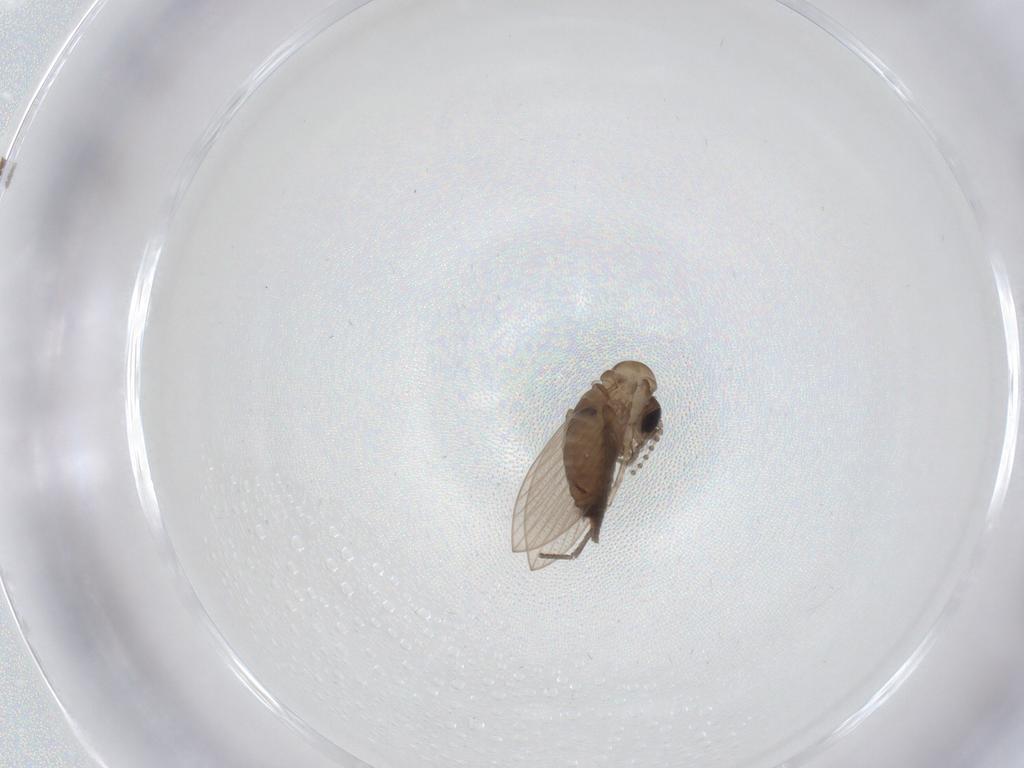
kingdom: Animalia
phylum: Arthropoda
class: Insecta
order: Diptera
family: Psychodidae
